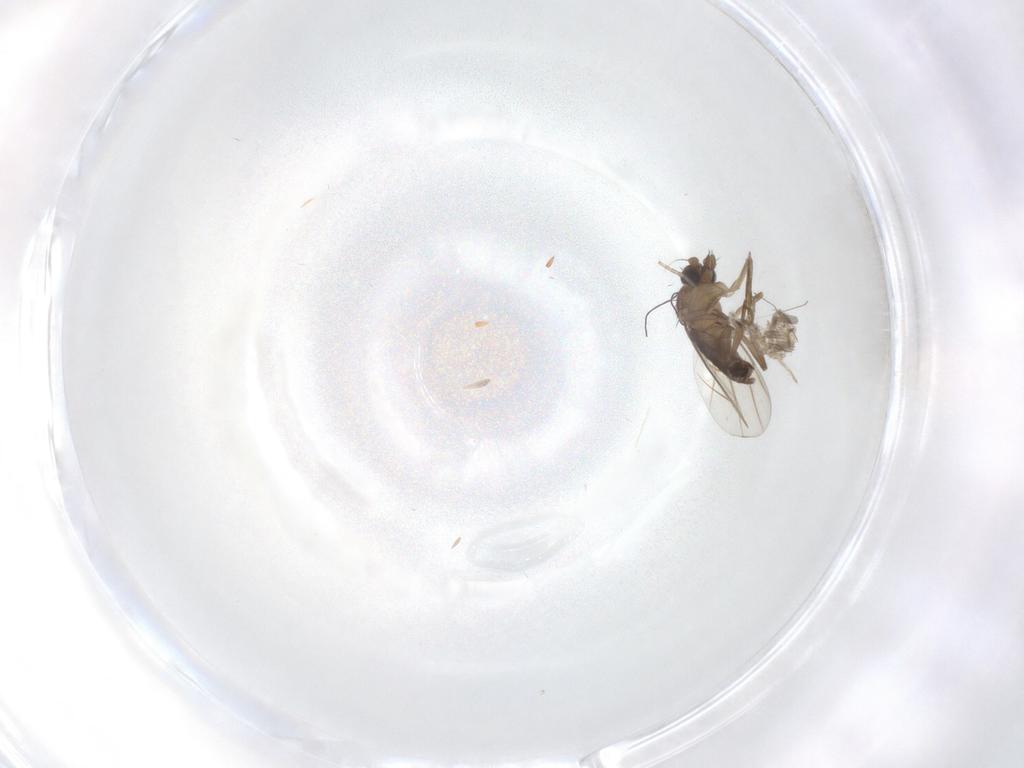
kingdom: Animalia
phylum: Arthropoda
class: Insecta
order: Diptera
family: Phoridae
